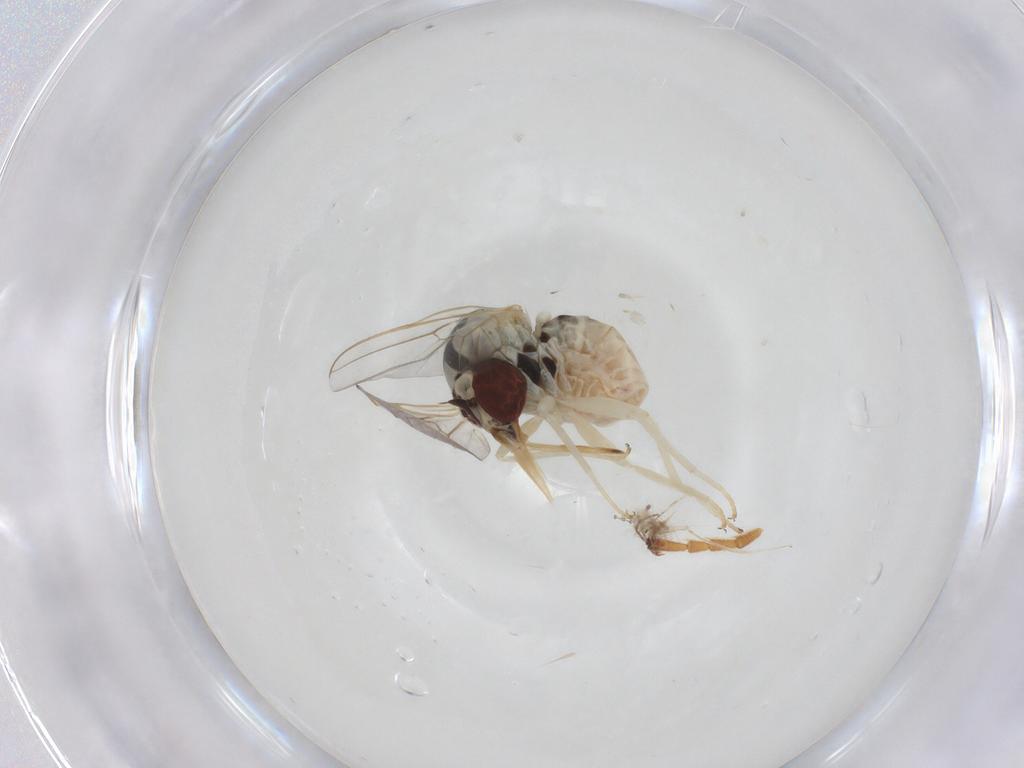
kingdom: Animalia
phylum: Arthropoda
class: Insecta
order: Diptera
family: Bombyliidae
